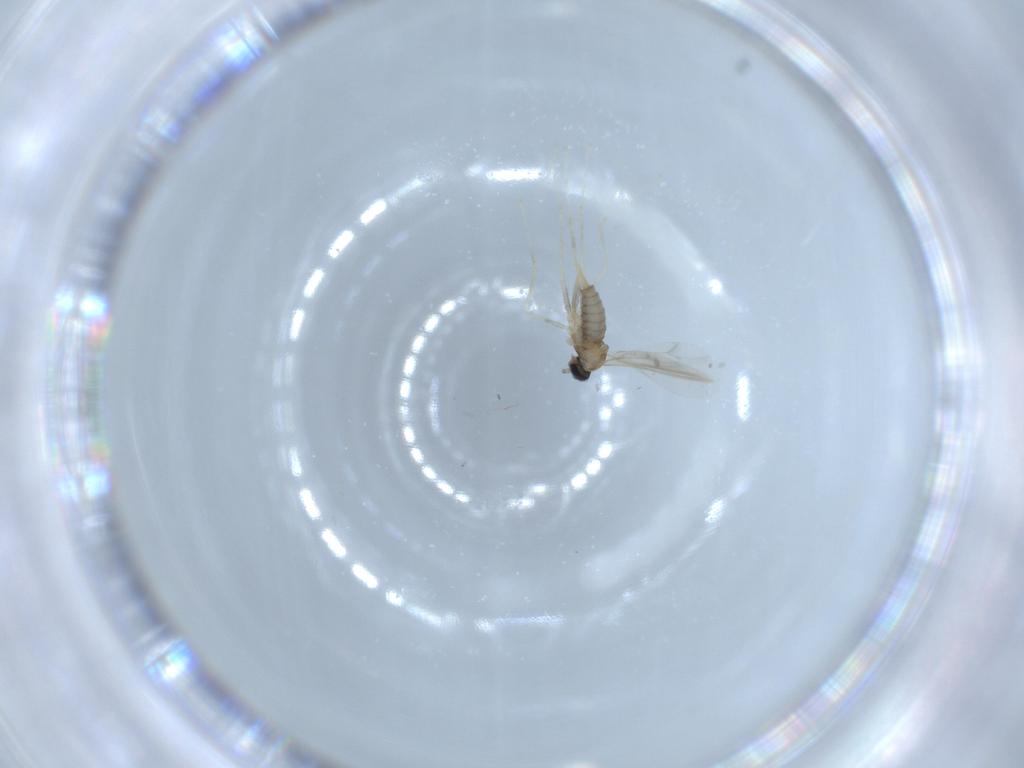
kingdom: Animalia
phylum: Arthropoda
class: Insecta
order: Diptera
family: Cecidomyiidae
